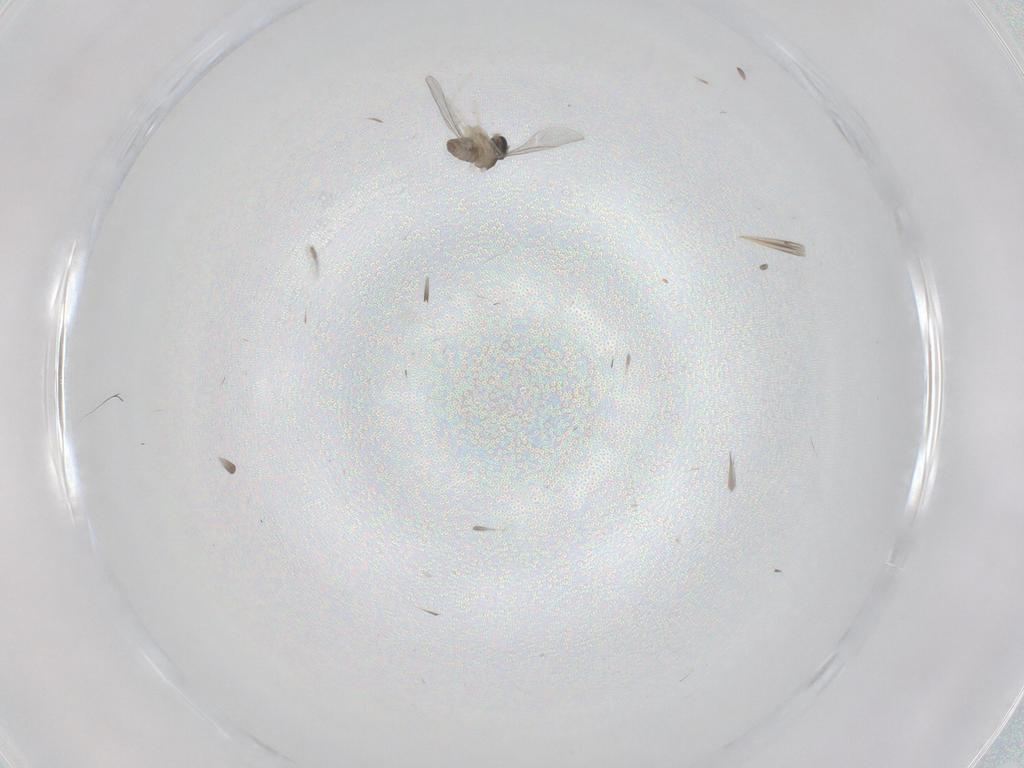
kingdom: Animalia
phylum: Arthropoda
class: Insecta
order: Diptera
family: Cecidomyiidae
